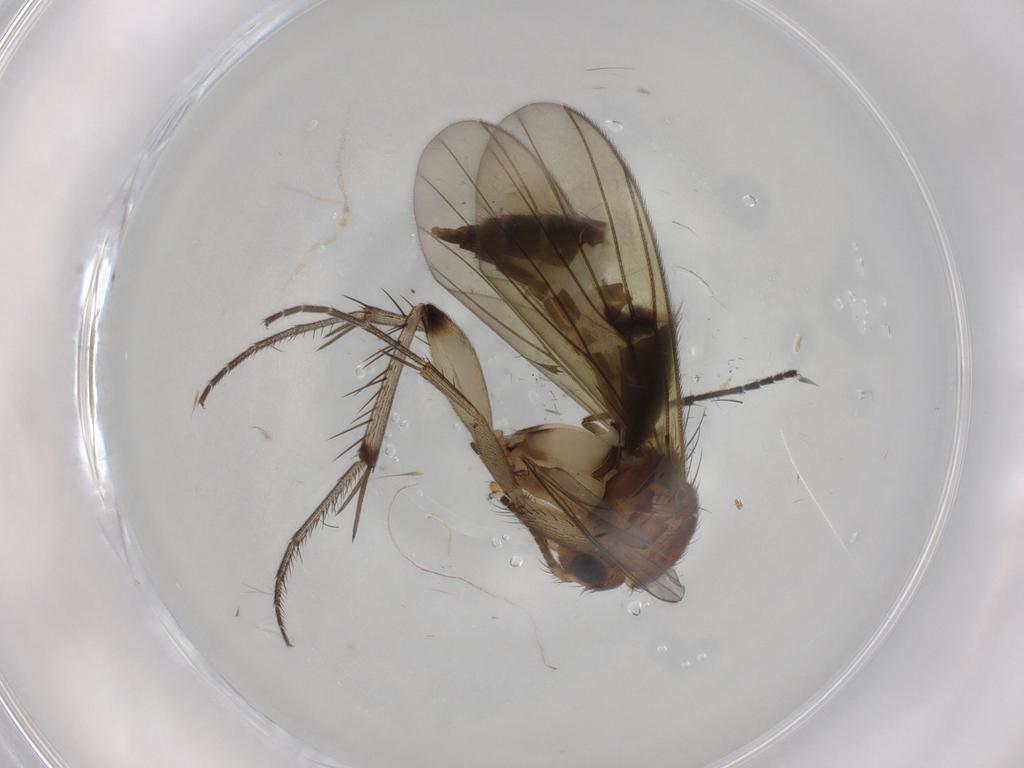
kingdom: Animalia
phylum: Arthropoda
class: Insecta
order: Diptera
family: Mycetophilidae
